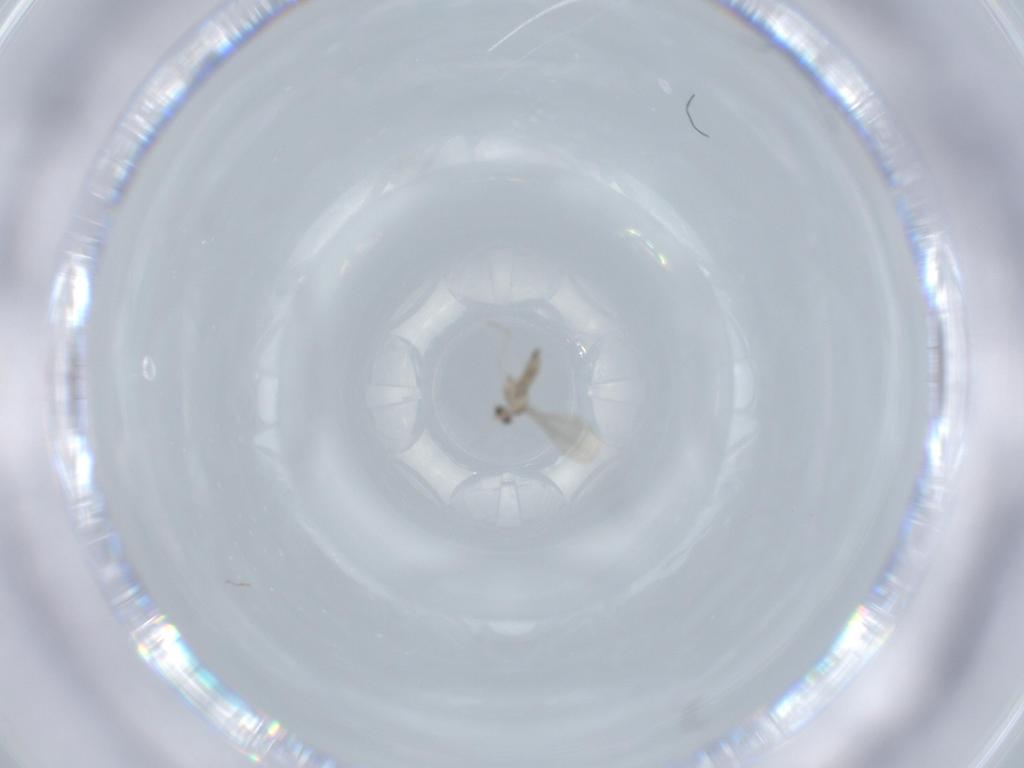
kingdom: Animalia
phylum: Arthropoda
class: Insecta
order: Diptera
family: Cecidomyiidae
